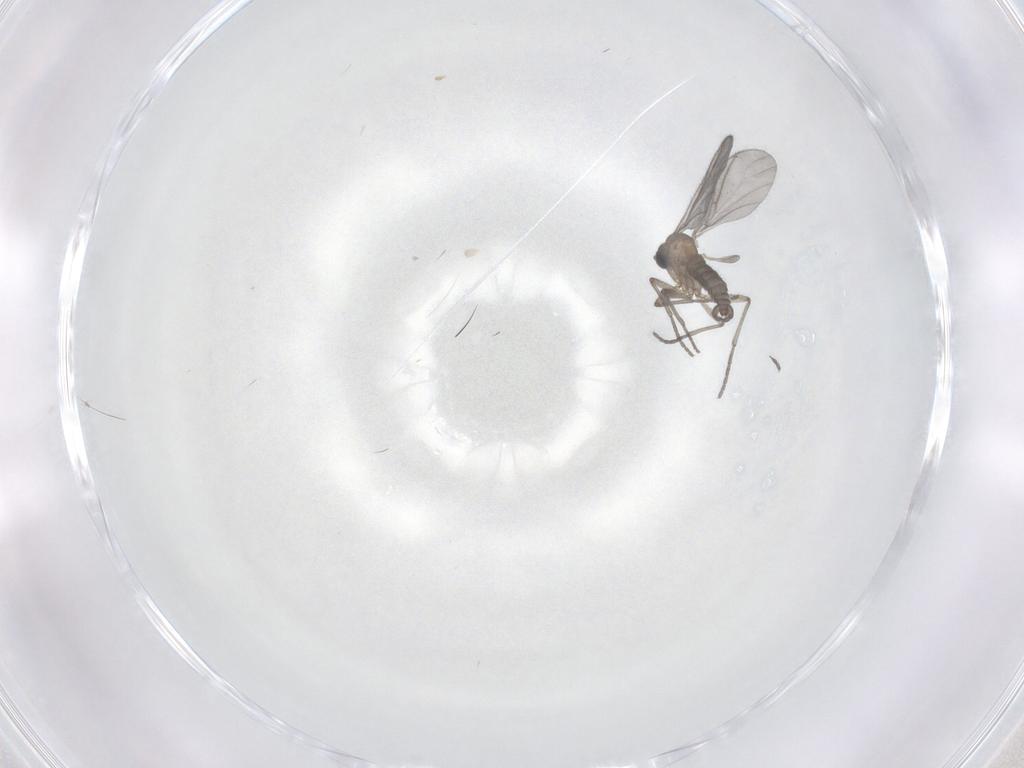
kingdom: Animalia
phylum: Arthropoda
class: Insecta
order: Diptera
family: Sciaridae
